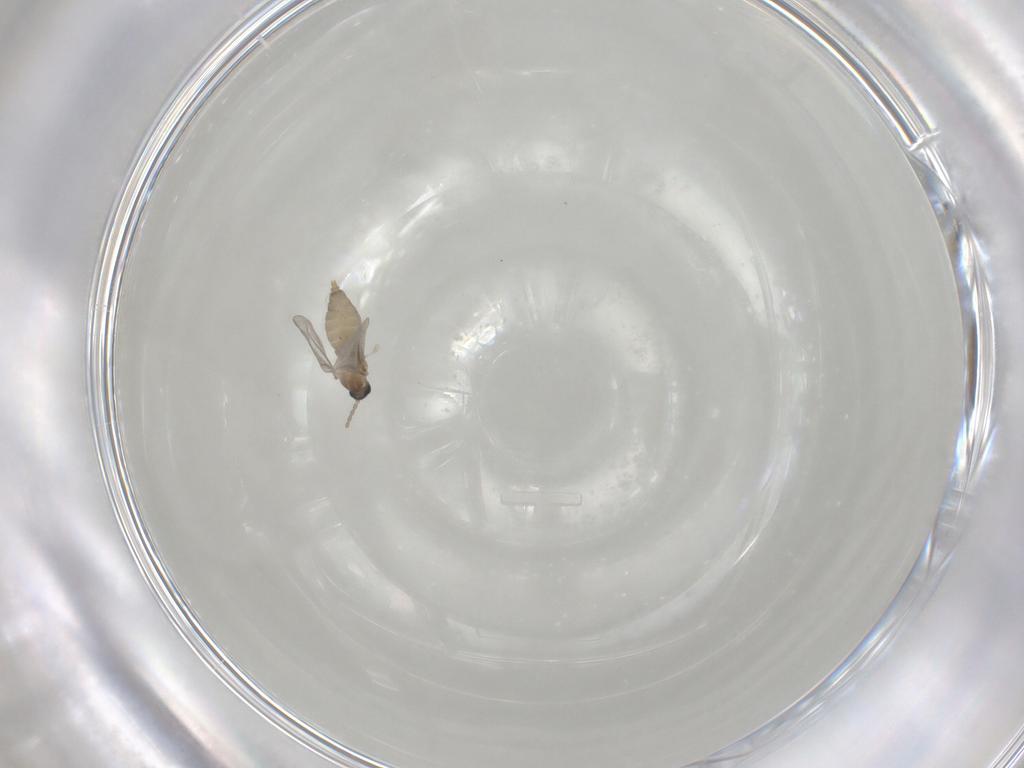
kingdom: Animalia
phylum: Arthropoda
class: Insecta
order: Diptera
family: Cecidomyiidae
